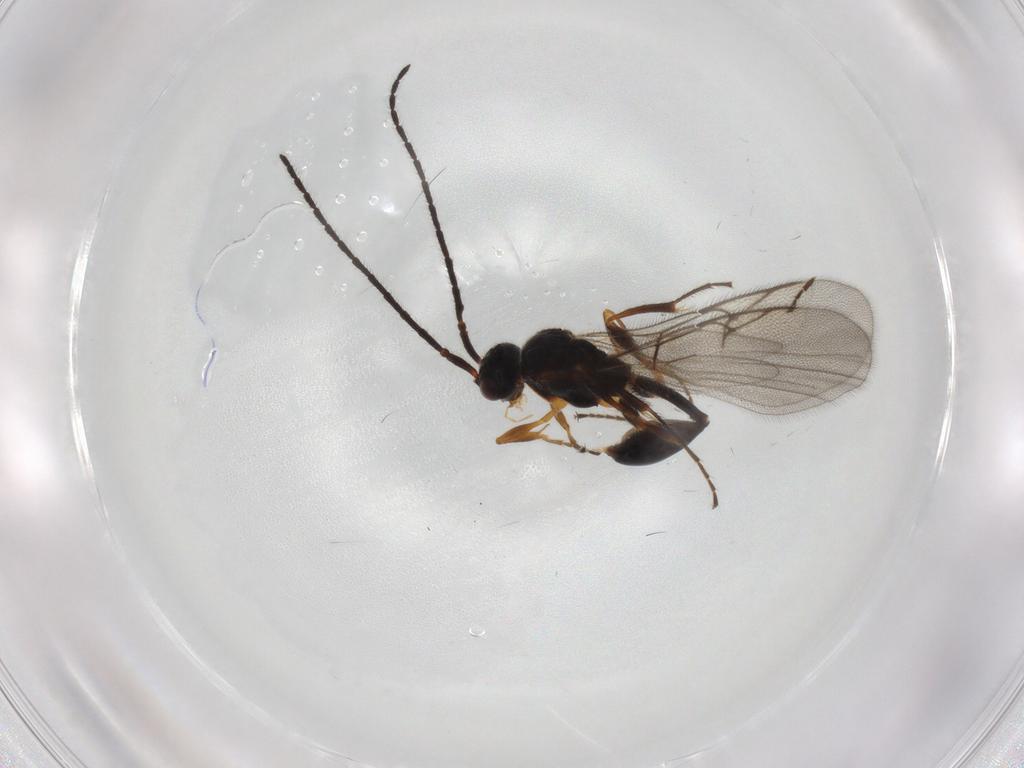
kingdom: Animalia
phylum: Arthropoda
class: Insecta
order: Hymenoptera
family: Diapriidae
